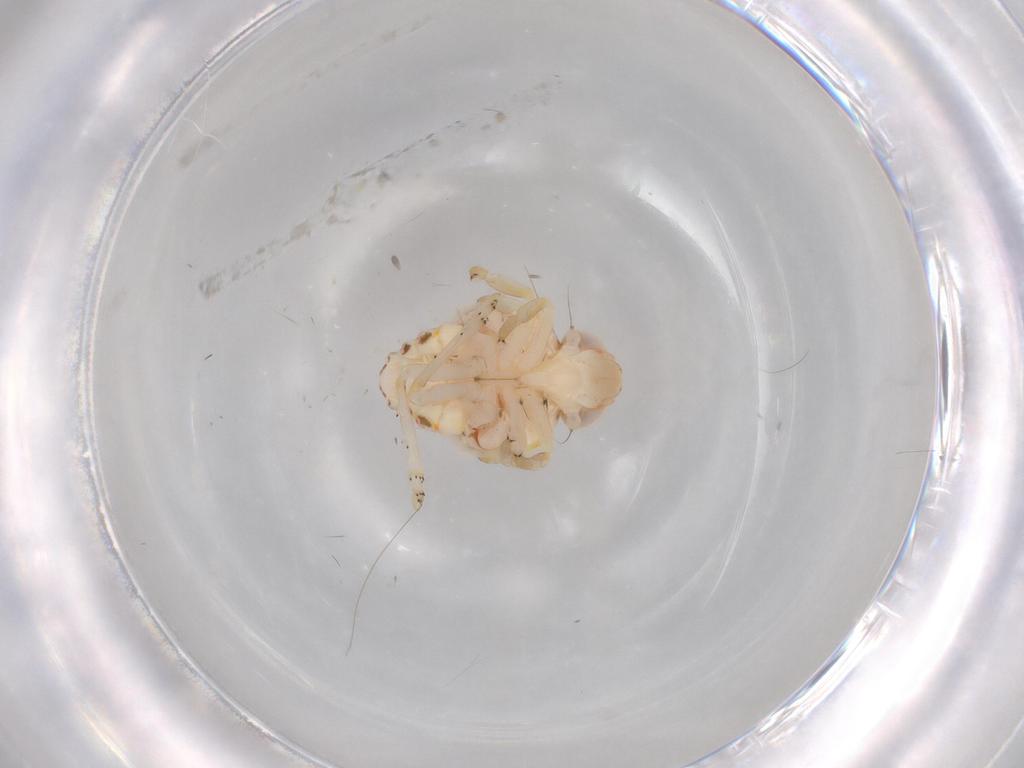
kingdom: Animalia
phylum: Arthropoda
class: Insecta
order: Hemiptera
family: Nogodinidae
